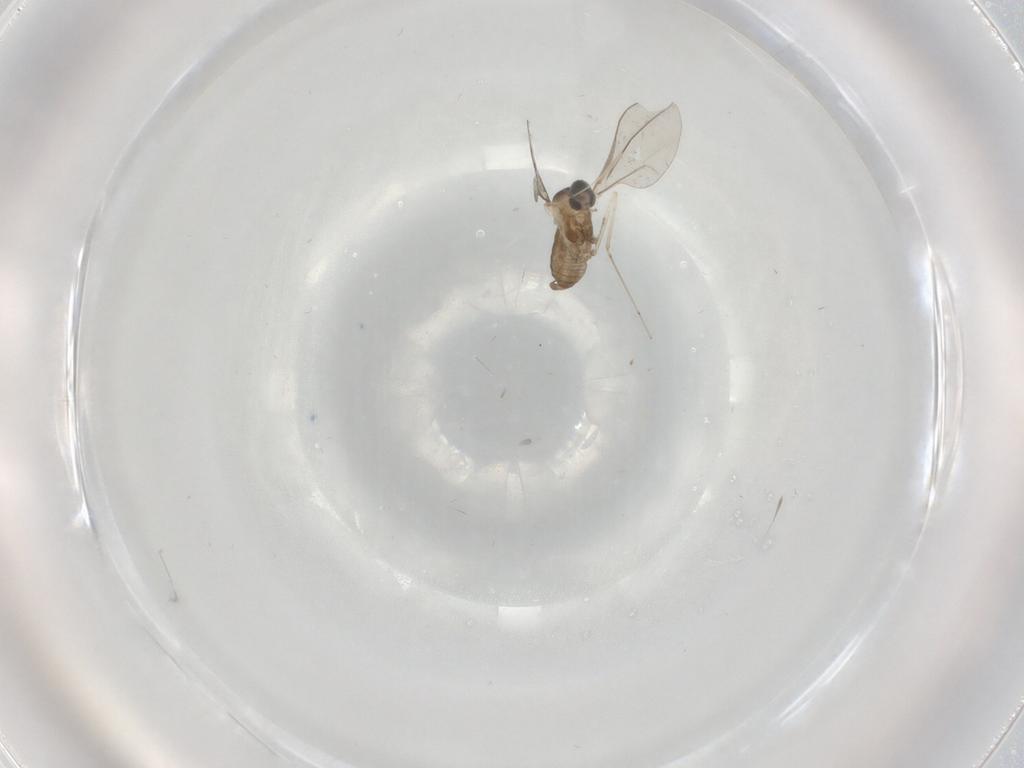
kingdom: Animalia
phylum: Arthropoda
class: Insecta
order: Diptera
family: Cecidomyiidae
